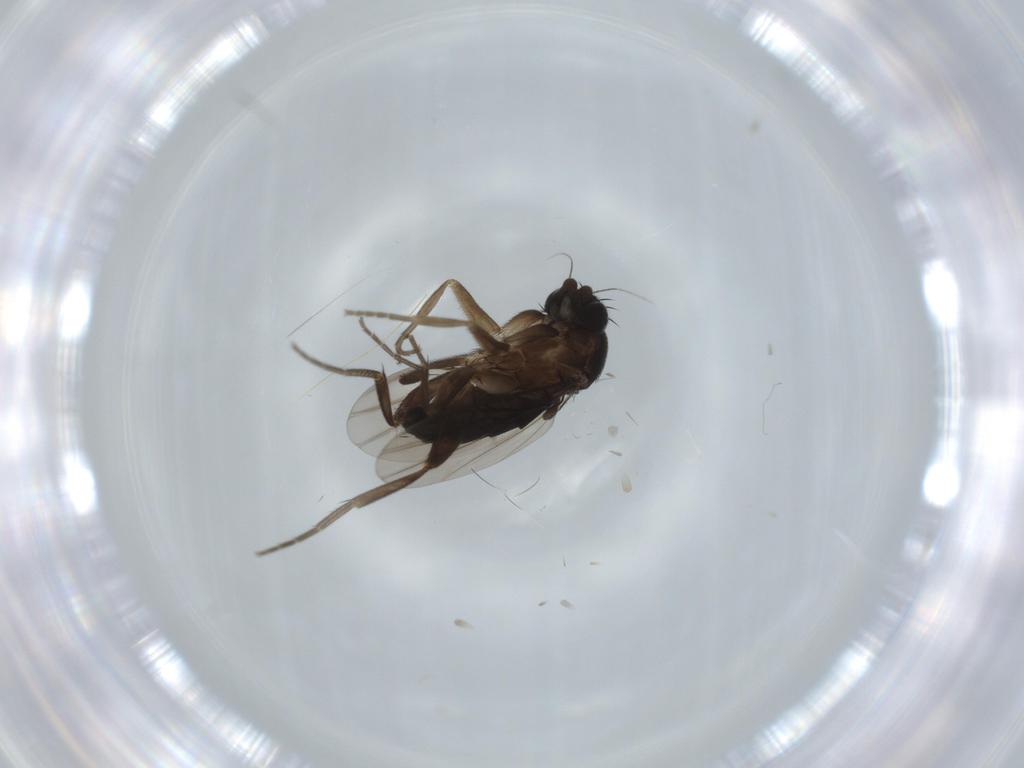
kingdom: Animalia
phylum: Arthropoda
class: Insecta
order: Diptera
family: Phoridae
